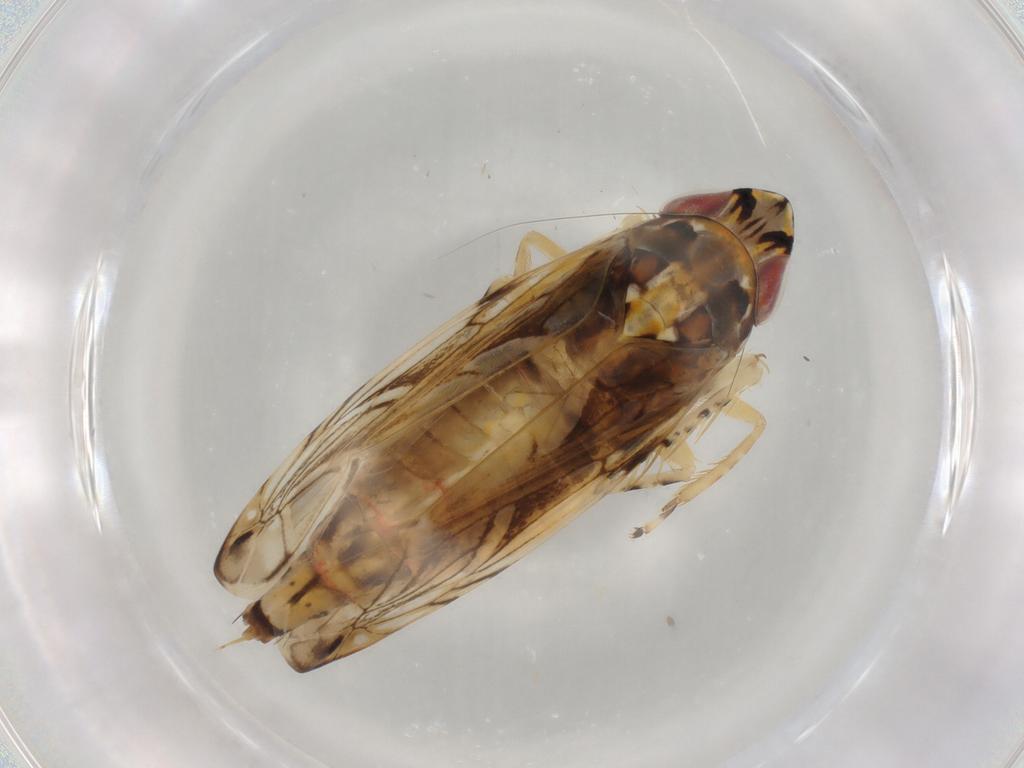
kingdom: Animalia
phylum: Arthropoda
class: Insecta
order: Hemiptera
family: Cicadellidae
